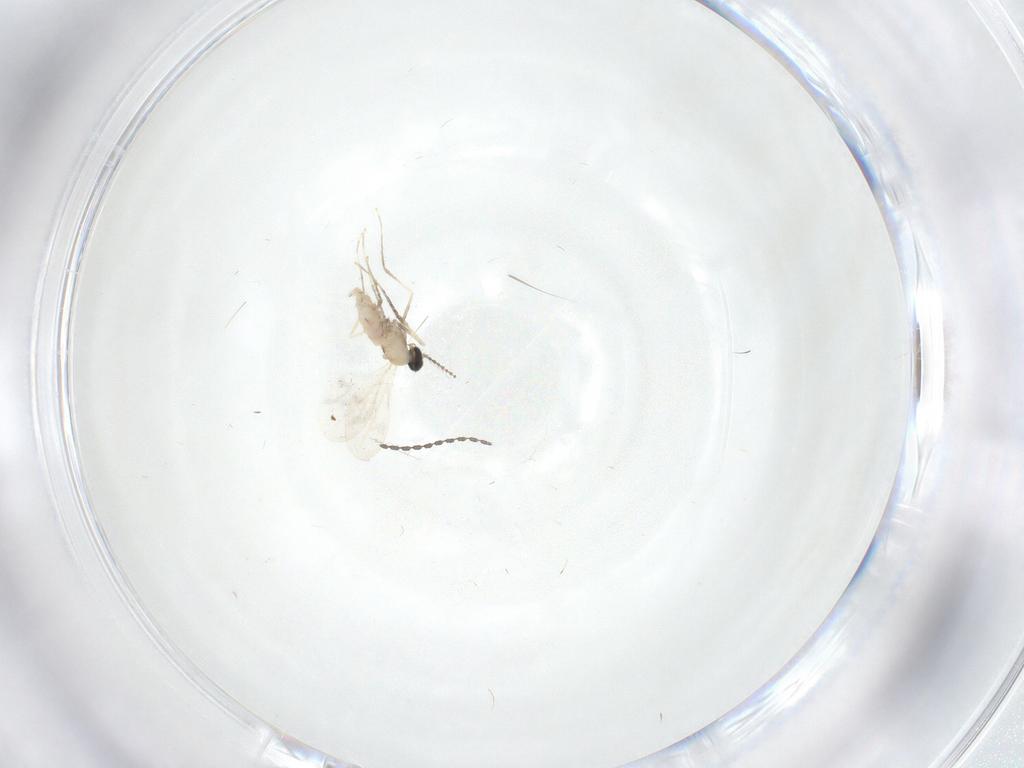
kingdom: Animalia
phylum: Arthropoda
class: Insecta
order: Diptera
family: Cecidomyiidae
